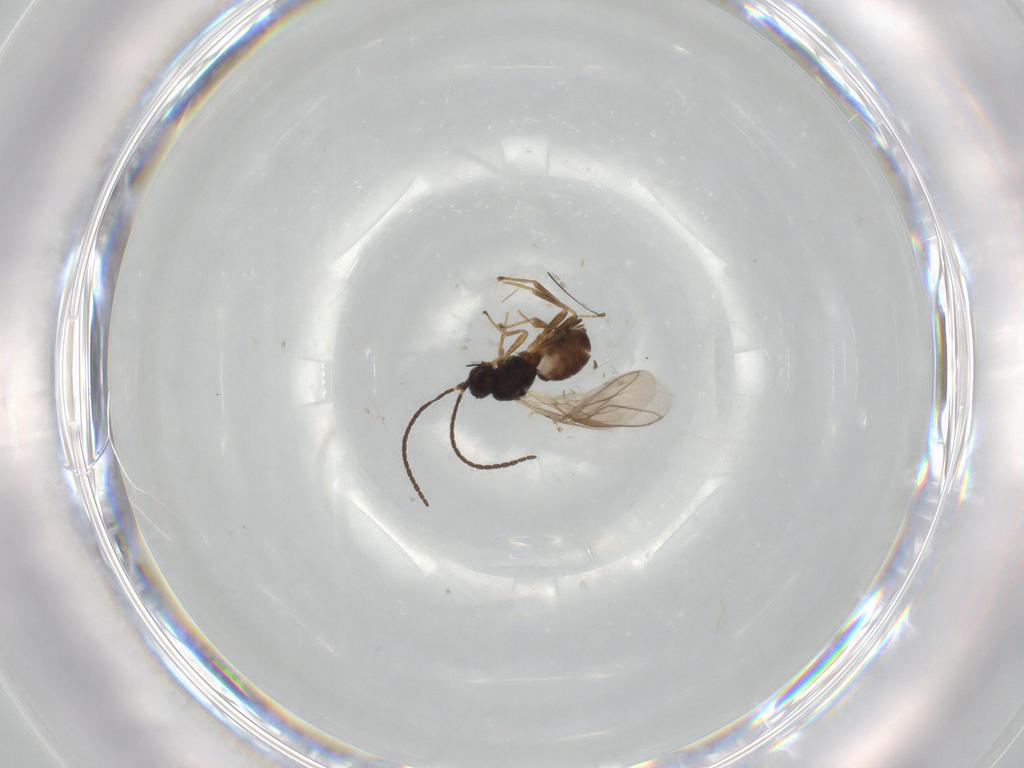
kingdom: Animalia
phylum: Arthropoda
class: Insecta
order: Hymenoptera
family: Braconidae
